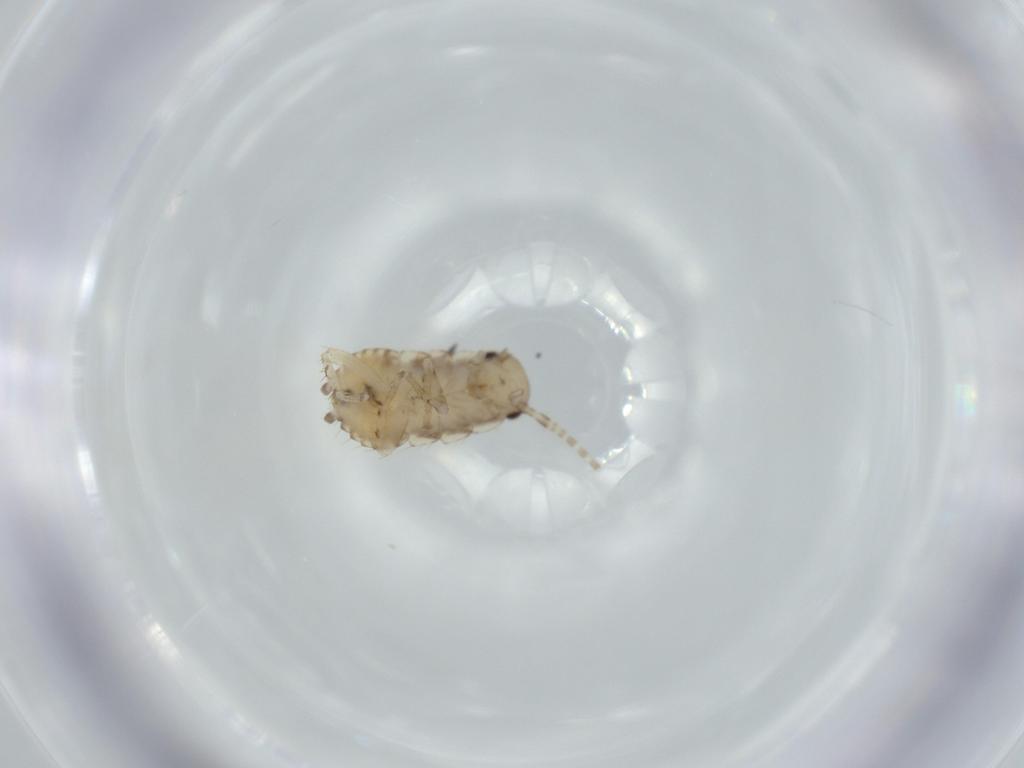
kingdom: Animalia
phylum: Arthropoda
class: Insecta
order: Blattodea
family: Ectobiidae
